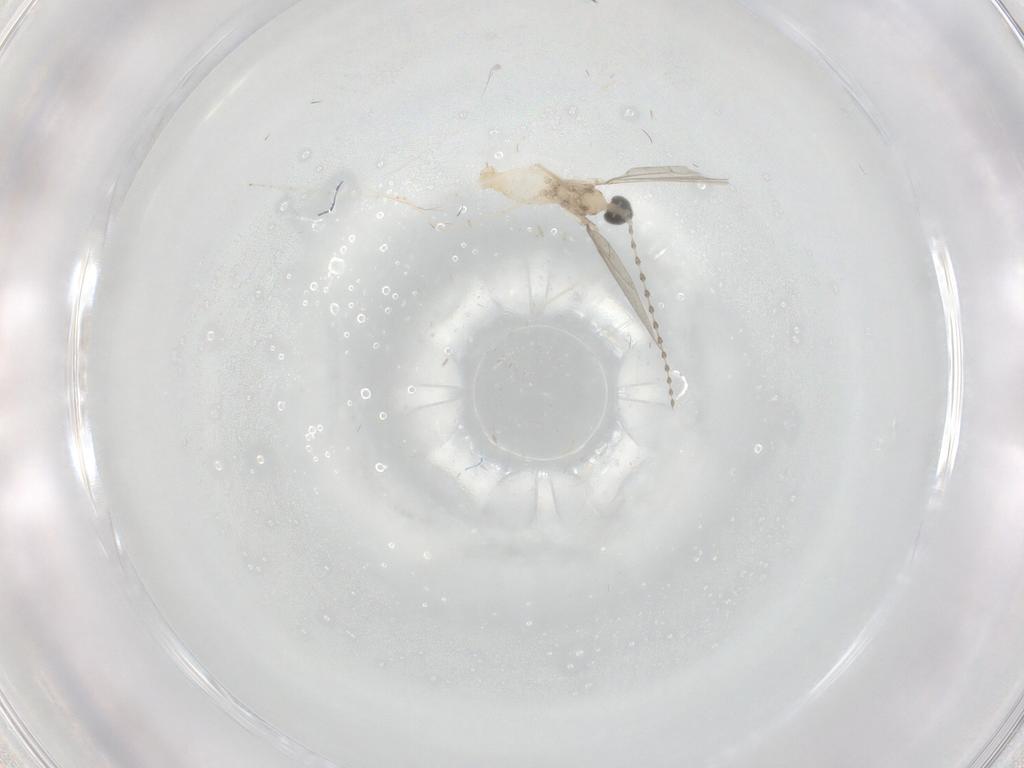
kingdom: Animalia
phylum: Arthropoda
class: Insecta
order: Diptera
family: Cecidomyiidae
